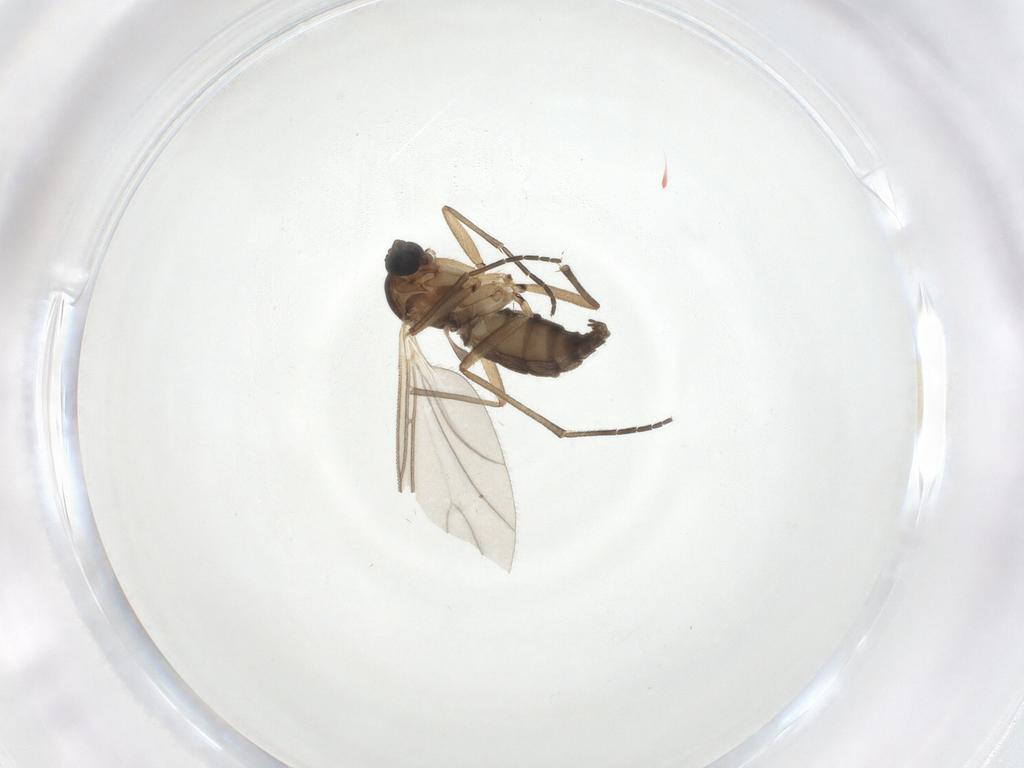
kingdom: Animalia
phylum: Arthropoda
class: Insecta
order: Diptera
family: Sciaridae
